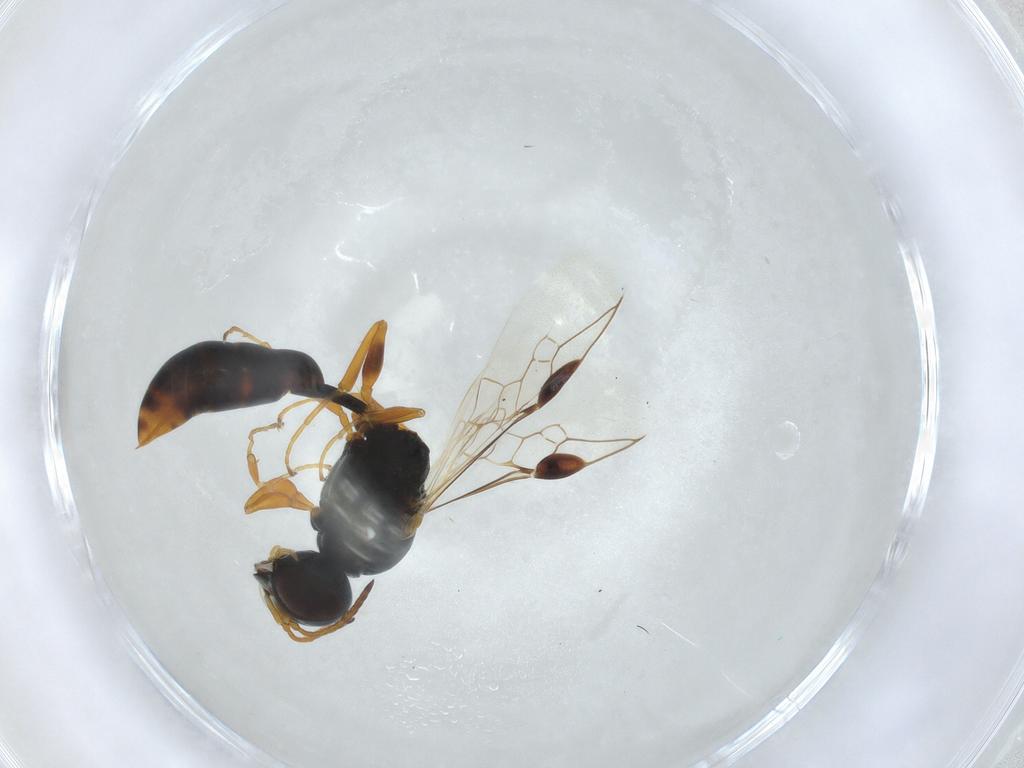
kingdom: Animalia
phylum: Arthropoda
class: Insecta
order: Hymenoptera
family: Crabronidae
